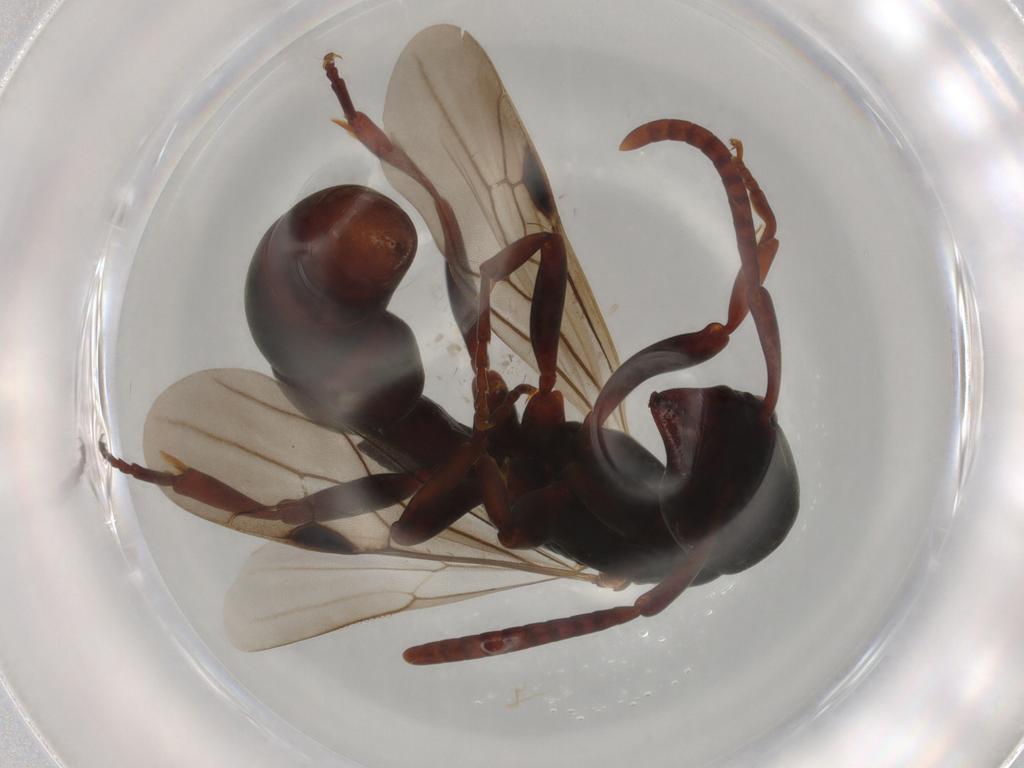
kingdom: Animalia
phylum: Arthropoda
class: Insecta
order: Hymenoptera
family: Formicidae
